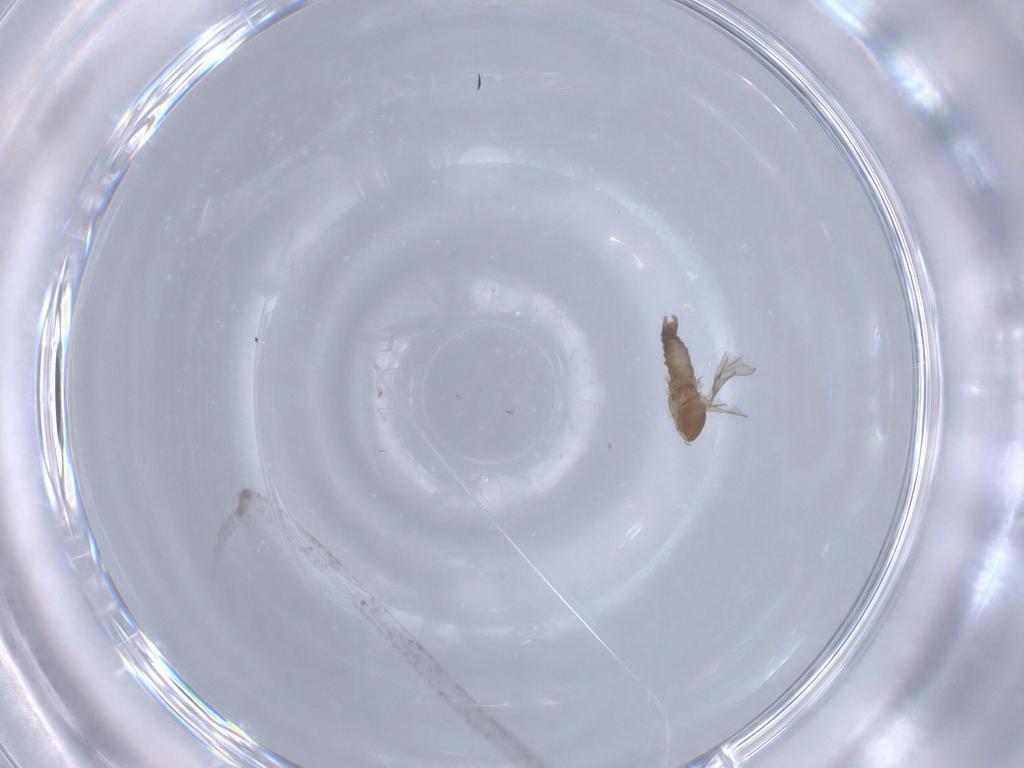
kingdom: Animalia
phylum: Arthropoda
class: Insecta
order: Diptera
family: Cecidomyiidae
